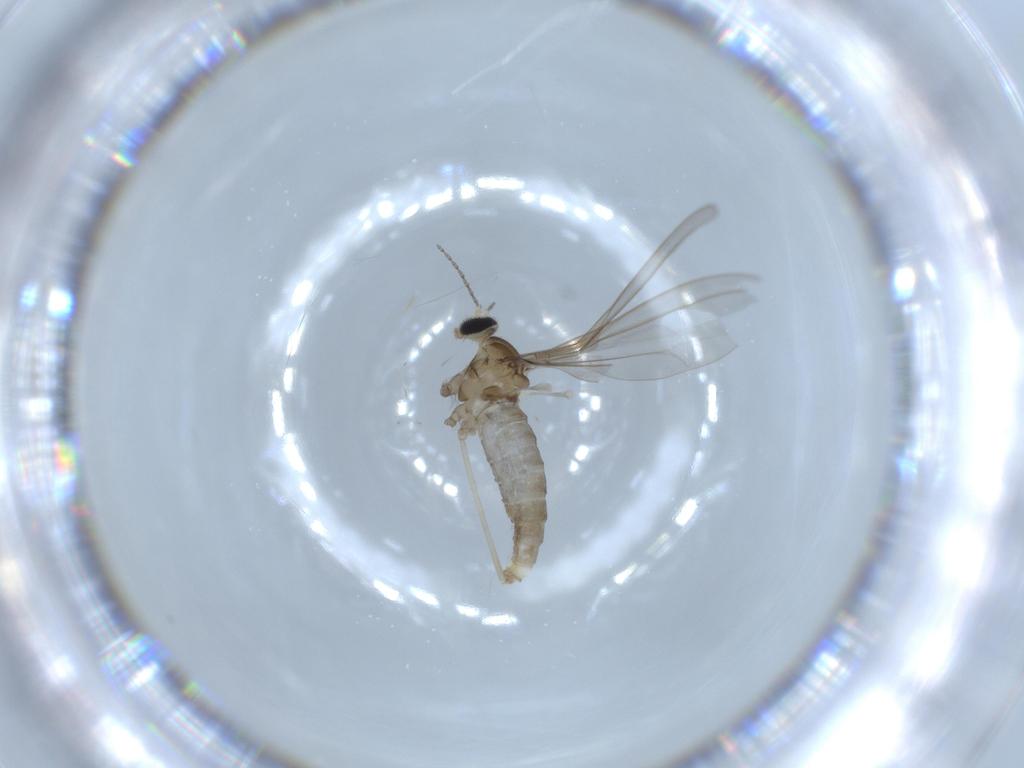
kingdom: Animalia
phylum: Arthropoda
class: Insecta
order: Diptera
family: Cecidomyiidae
